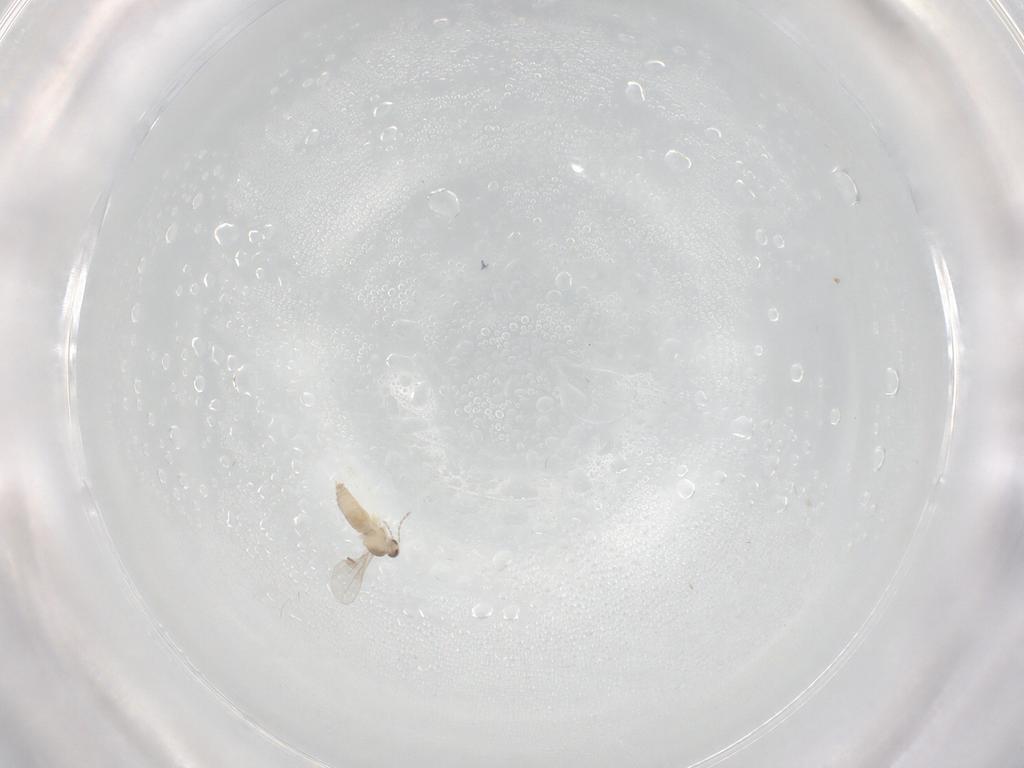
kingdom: Animalia
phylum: Arthropoda
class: Insecta
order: Diptera
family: Cecidomyiidae
